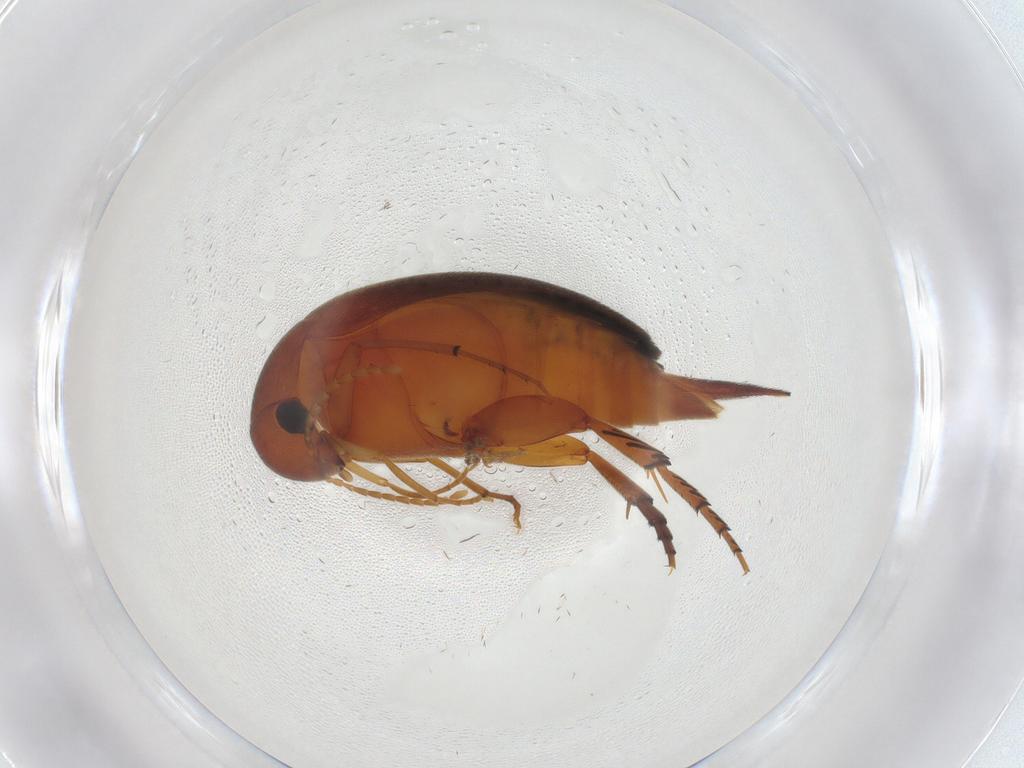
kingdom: Animalia
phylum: Arthropoda
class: Insecta
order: Coleoptera
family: Mordellidae
